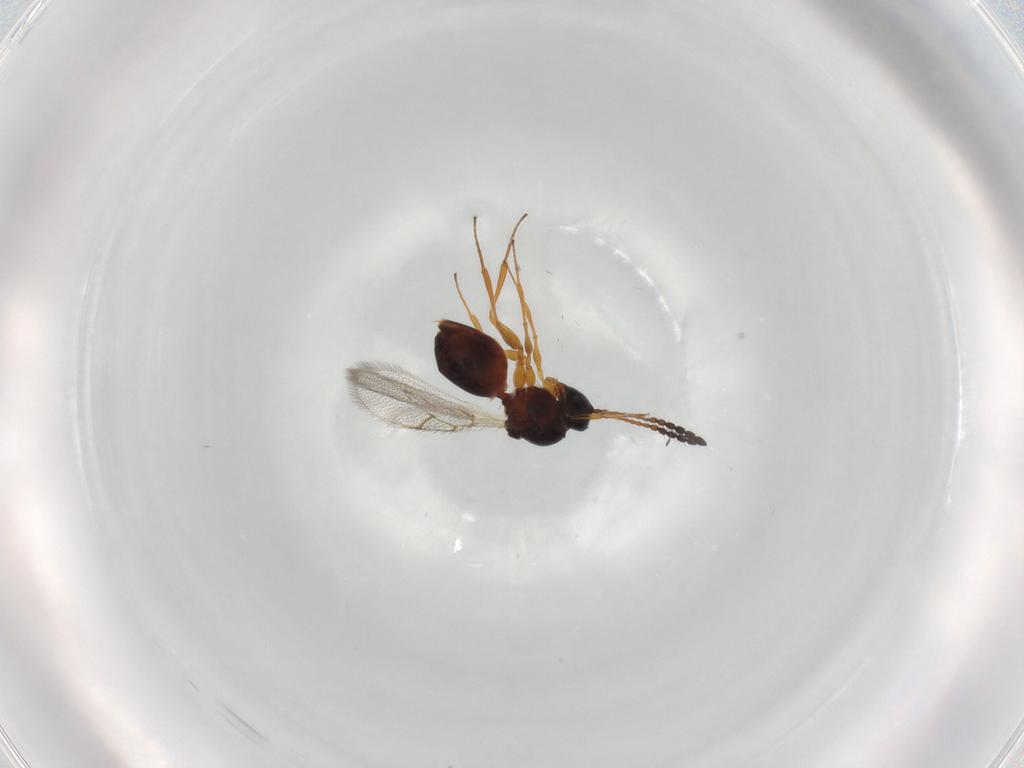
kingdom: Animalia
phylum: Arthropoda
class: Insecta
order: Hymenoptera
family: Figitidae
